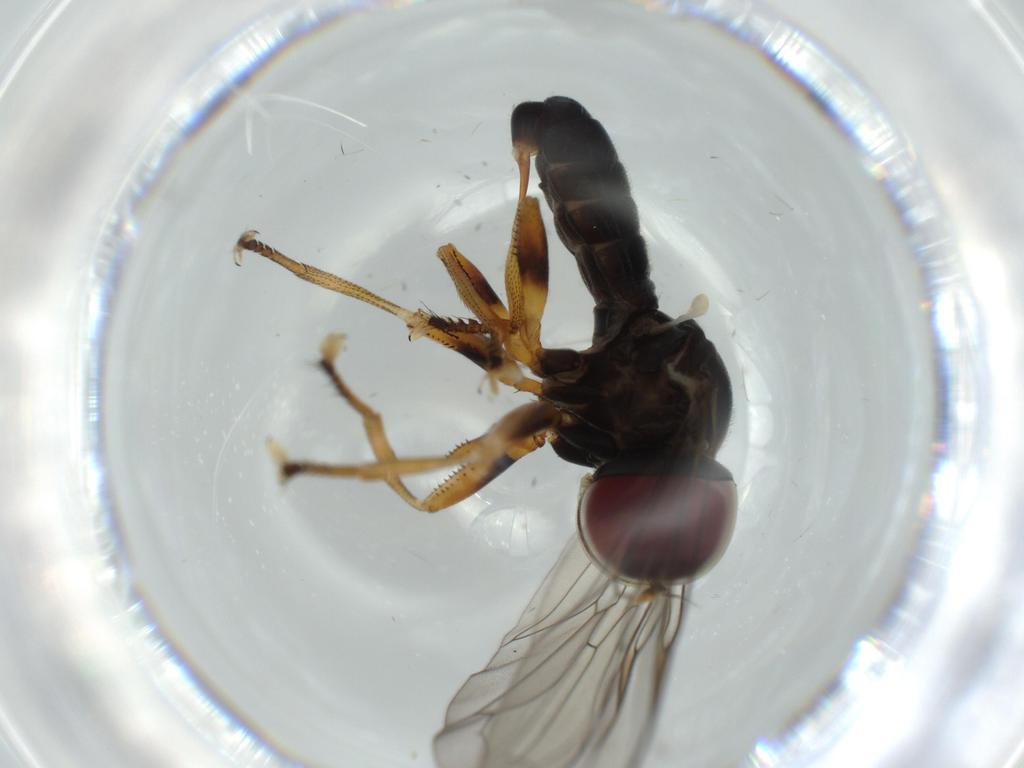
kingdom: Animalia
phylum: Arthropoda
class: Insecta
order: Diptera
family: Pipunculidae
